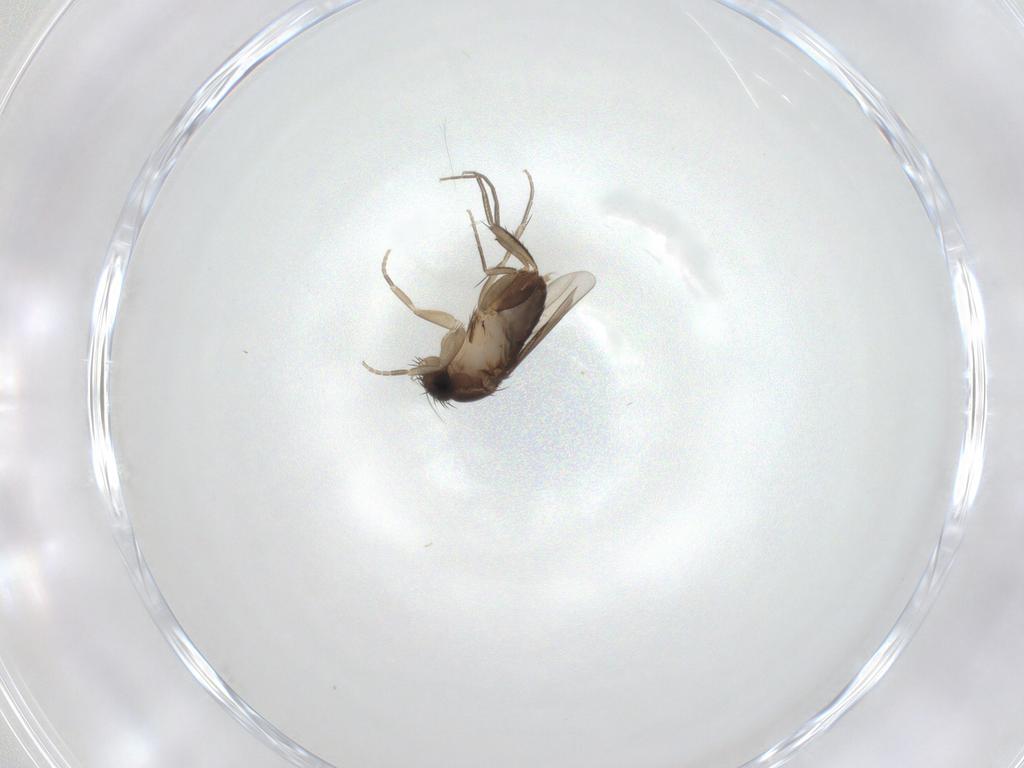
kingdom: Animalia
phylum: Arthropoda
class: Insecta
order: Diptera
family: Phoridae
